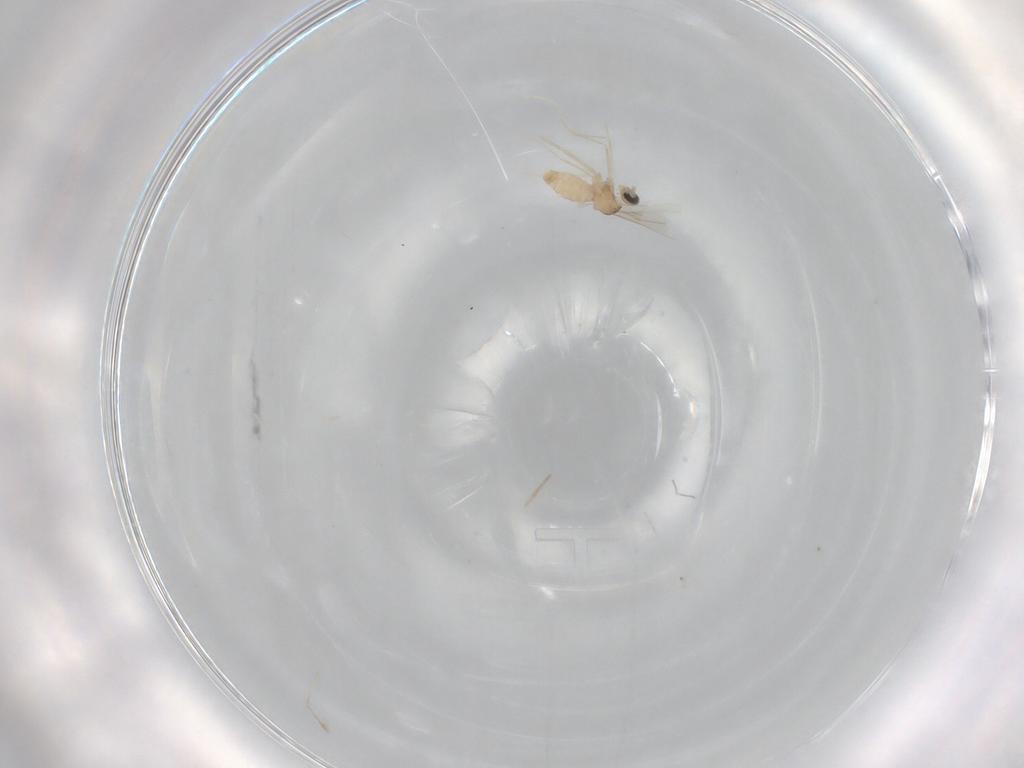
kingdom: Animalia
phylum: Arthropoda
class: Insecta
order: Diptera
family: Cecidomyiidae
